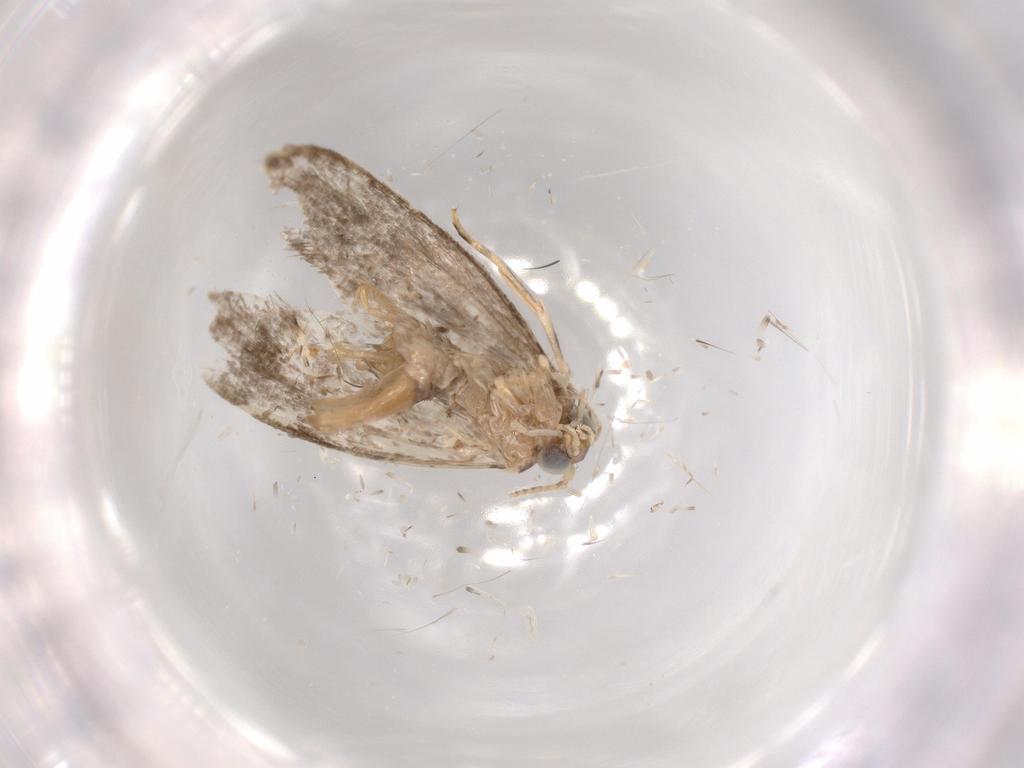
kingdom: Animalia
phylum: Arthropoda
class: Insecta
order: Lepidoptera
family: Tineidae
